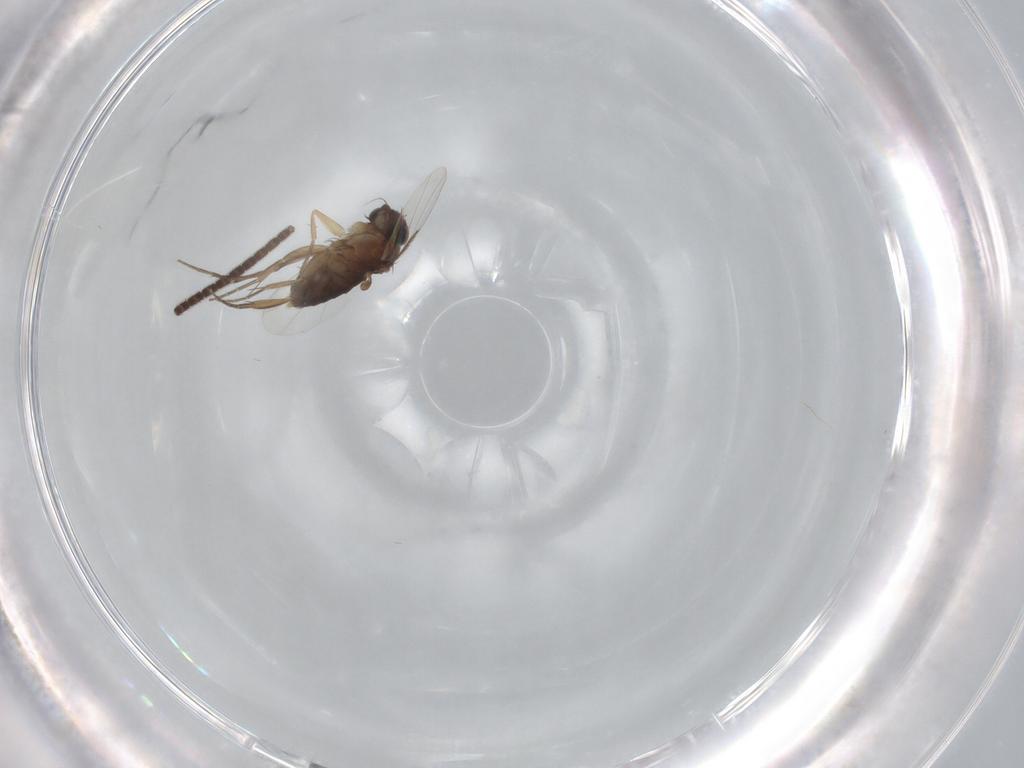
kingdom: Animalia
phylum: Arthropoda
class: Insecta
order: Diptera
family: Phoridae
